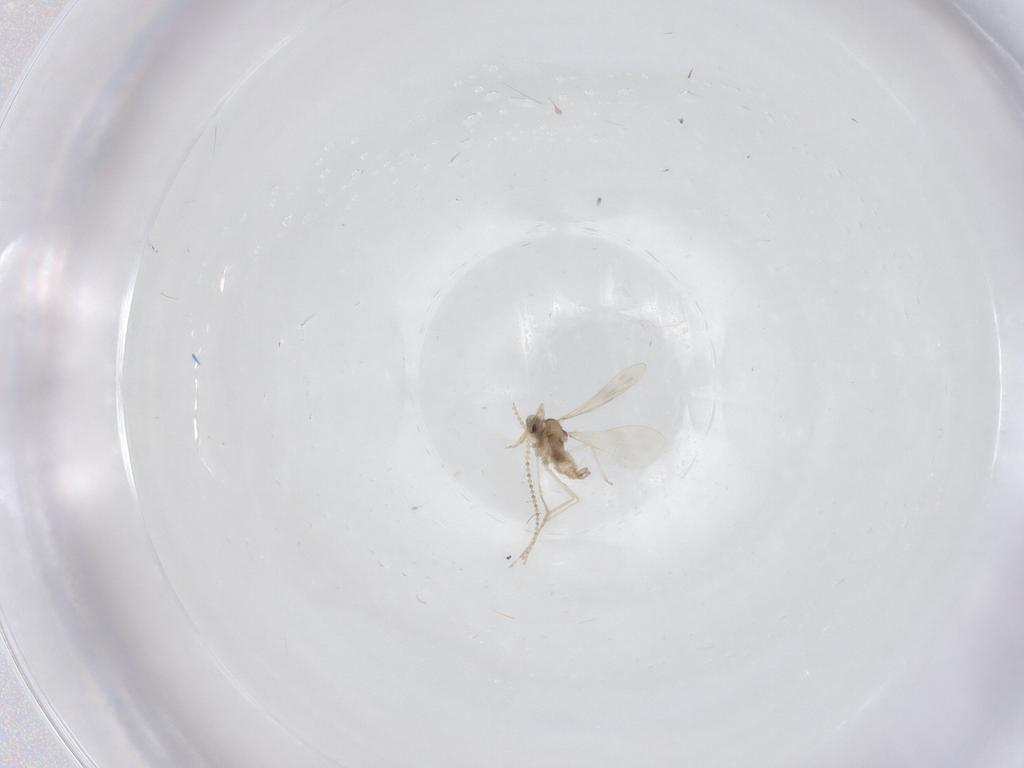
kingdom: Animalia
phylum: Arthropoda
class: Insecta
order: Diptera
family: Cecidomyiidae
